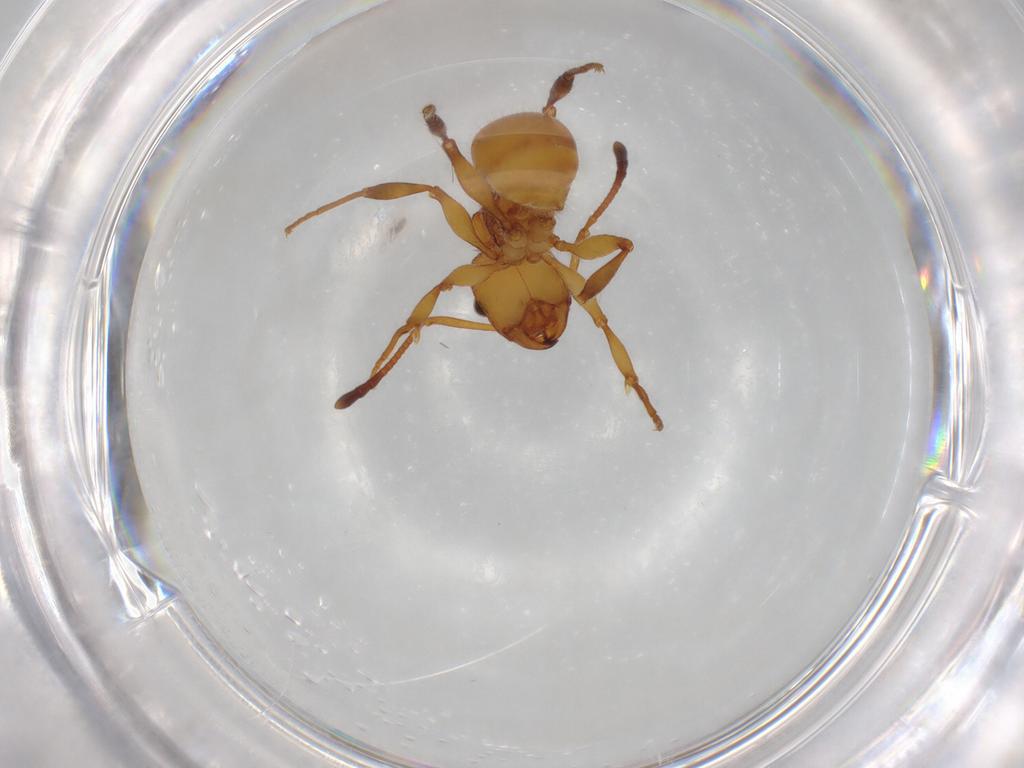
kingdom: Animalia
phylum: Arthropoda
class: Insecta
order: Hymenoptera
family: Formicidae
